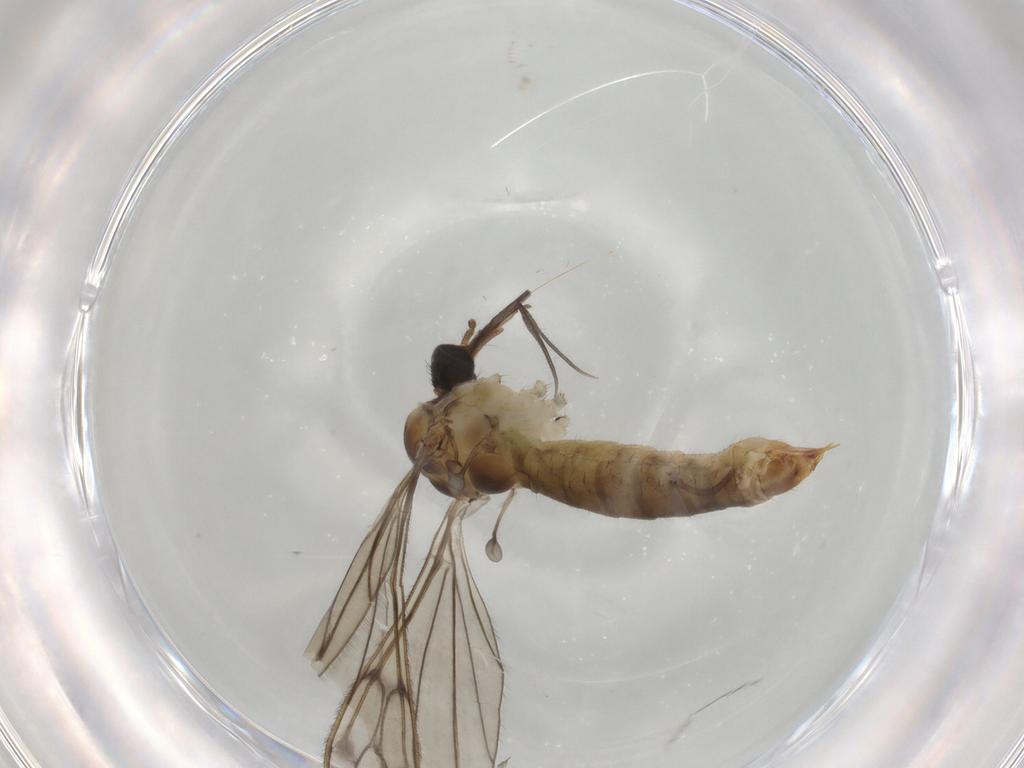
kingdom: Animalia
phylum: Arthropoda
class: Insecta
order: Diptera
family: Limoniidae
